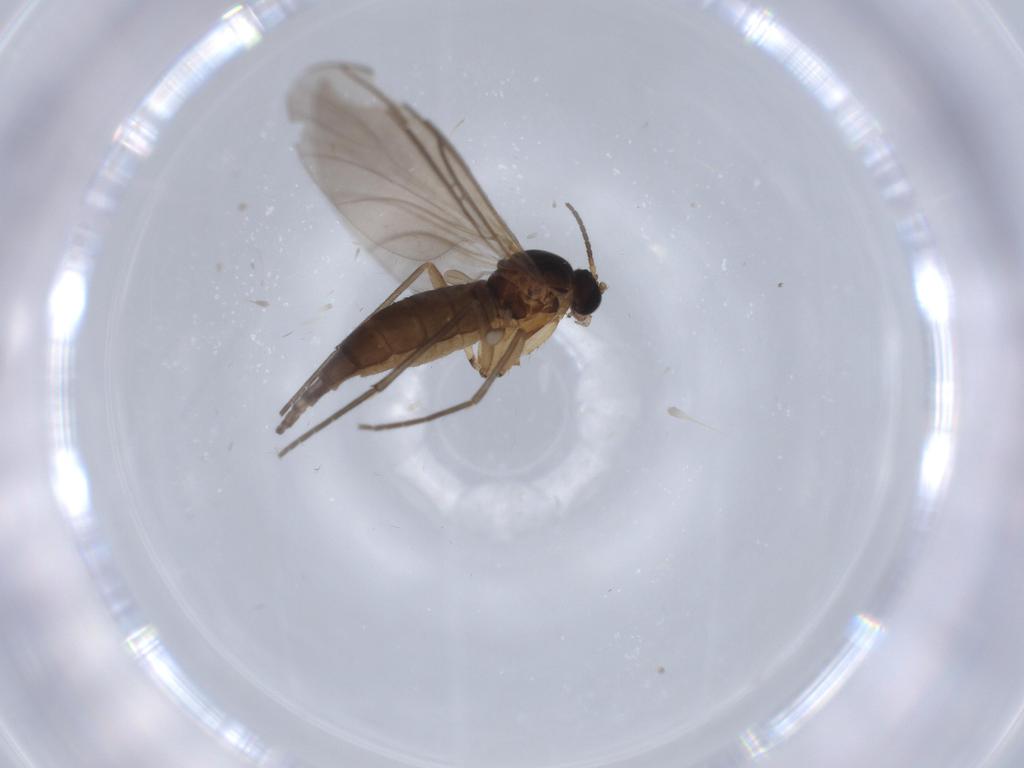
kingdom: Animalia
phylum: Arthropoda
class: Insecta
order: Diptera
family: Sciaridae
